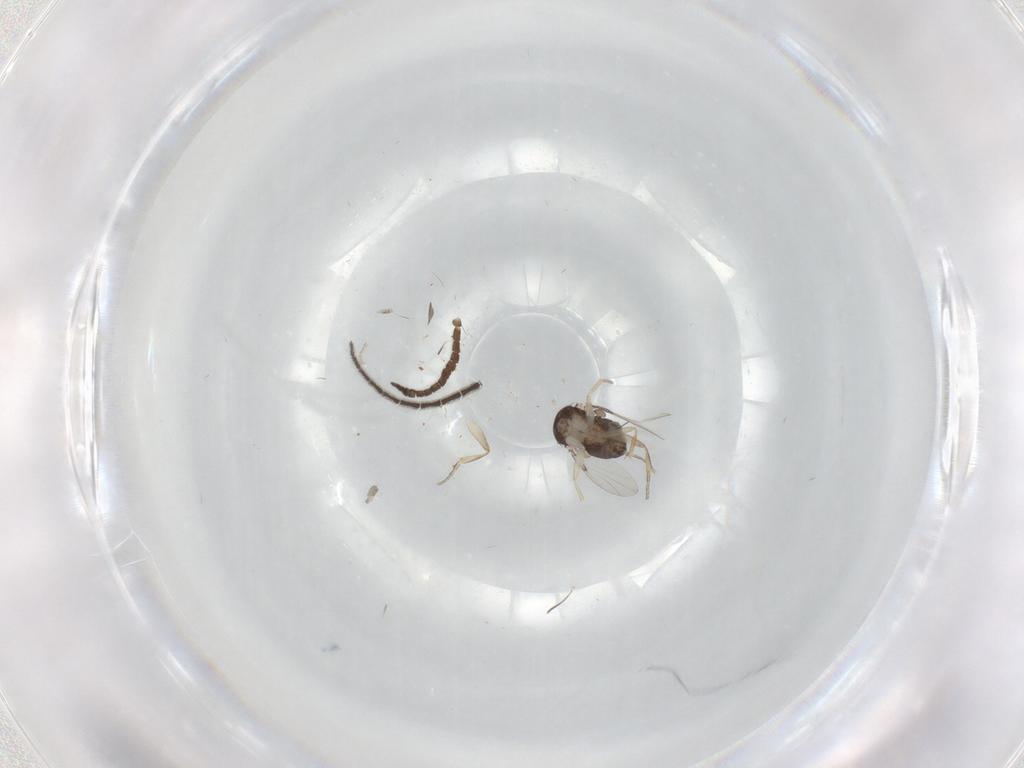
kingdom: Animalia
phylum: Arthropoda
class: Insecta
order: Diptera
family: Phoridae
